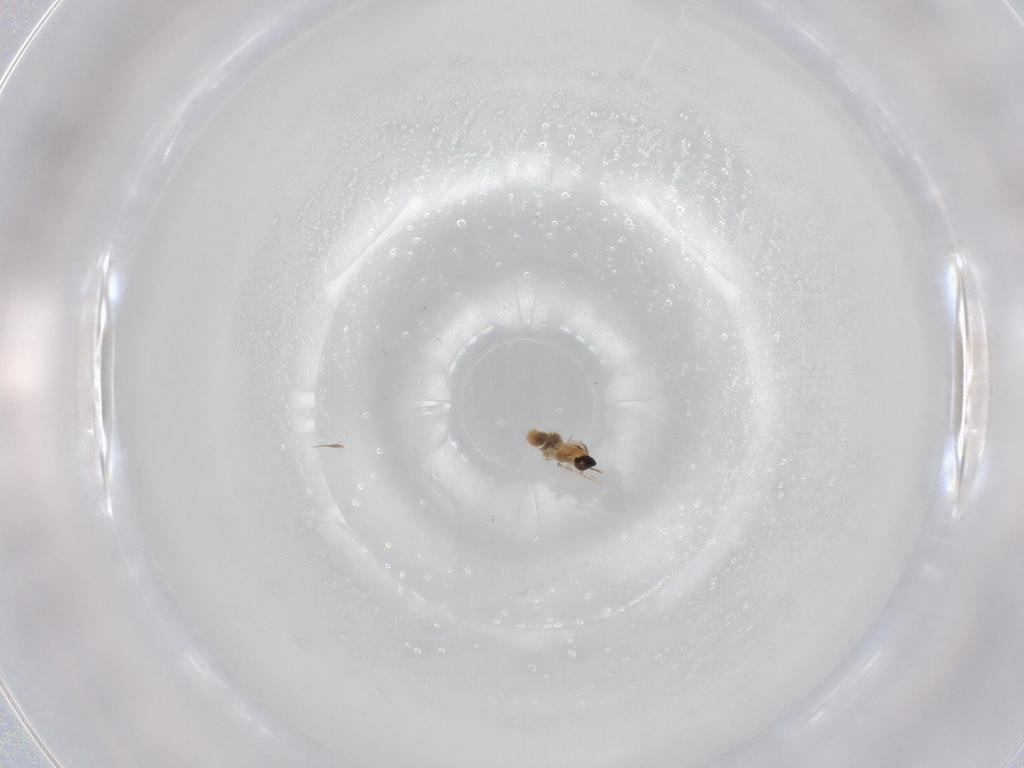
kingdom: Animalia
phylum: Arthropoda
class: Insecta
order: Diptera
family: Cecidomyiidae
